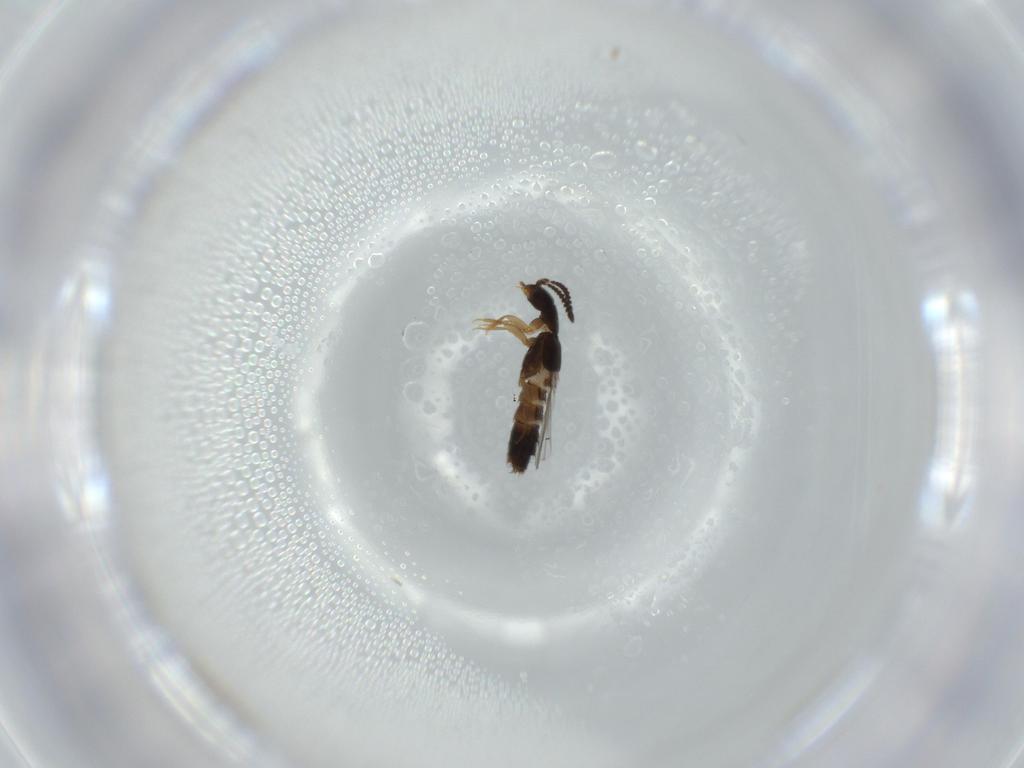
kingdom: Animalia
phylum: Arthropoda
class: Insecta
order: Coleoptera
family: Staphylinidae
